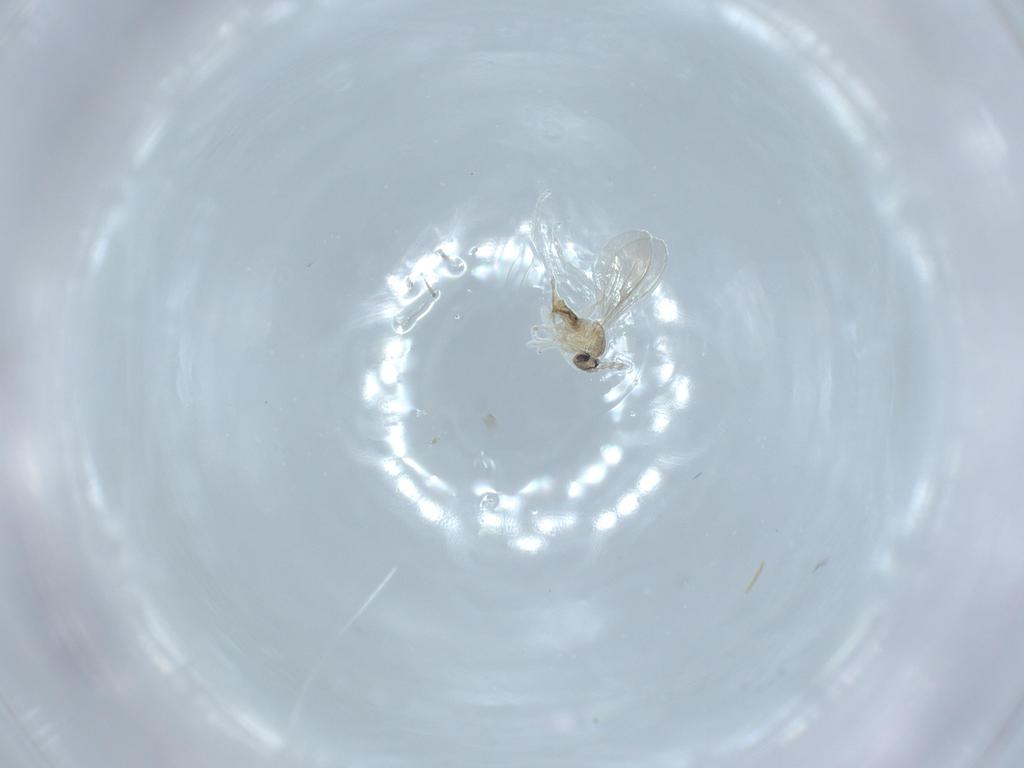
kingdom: Animalia
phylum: Arthropoda
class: Insecta
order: Diptera
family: Cecidomyiidae
